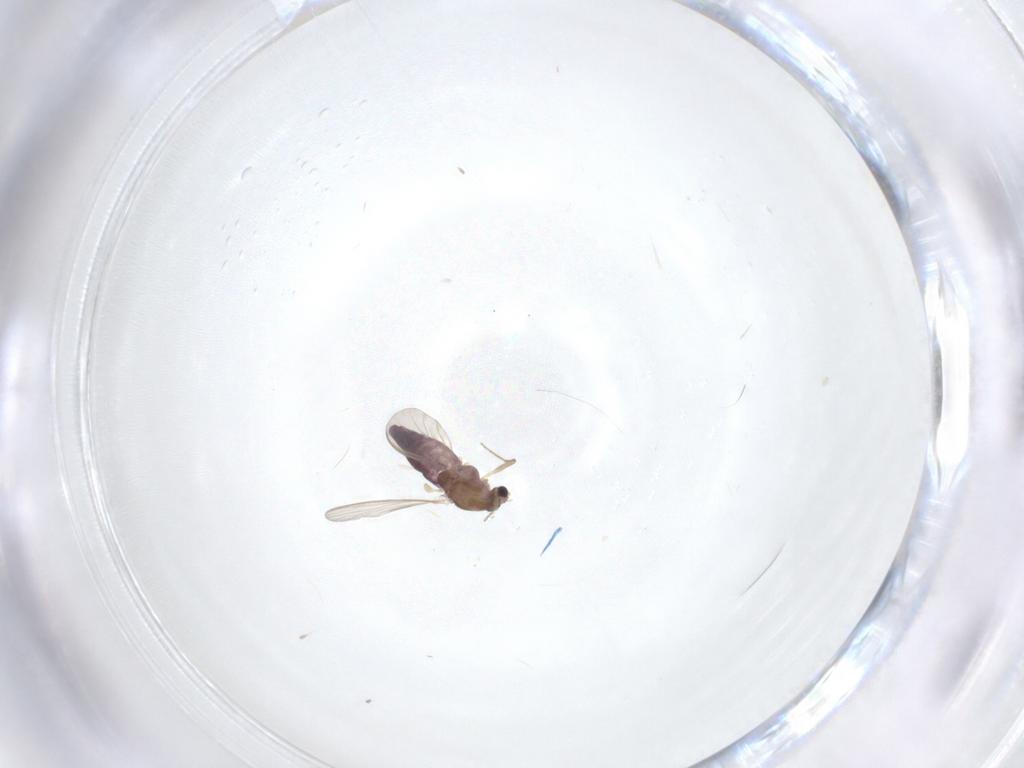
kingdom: Animalia
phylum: Arthropoda
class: Insecta
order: Diptera
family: Chironomidae
